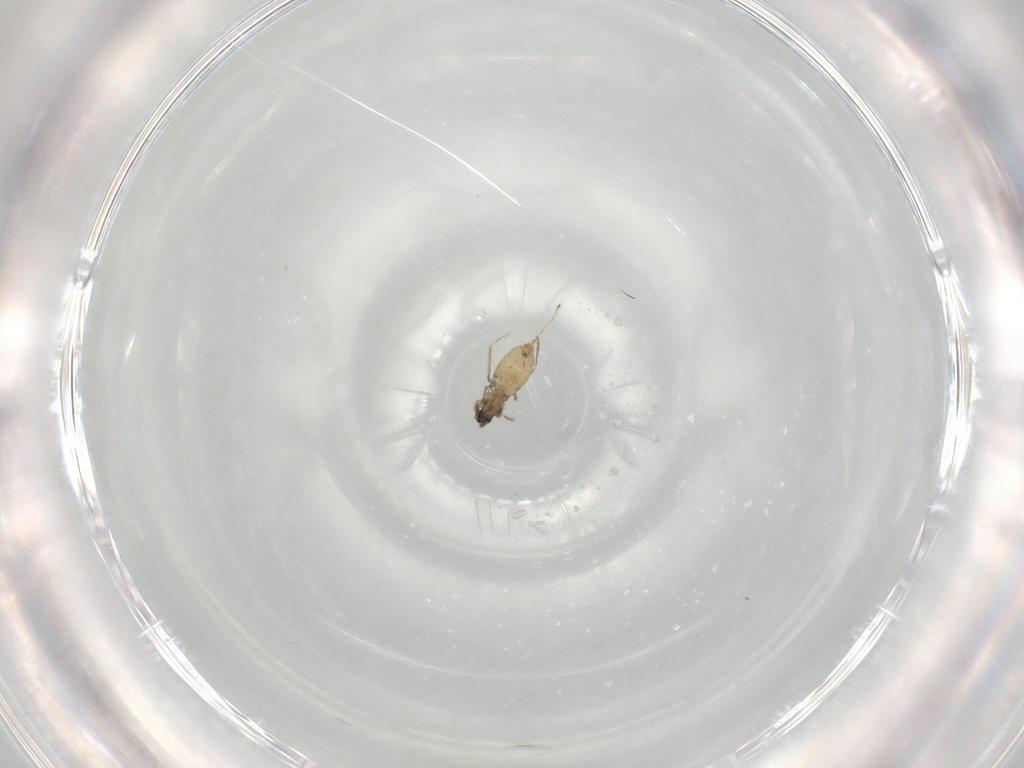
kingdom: Animalia
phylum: Arthropoda
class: Insecta
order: Diptera
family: Cecidomyiidae
